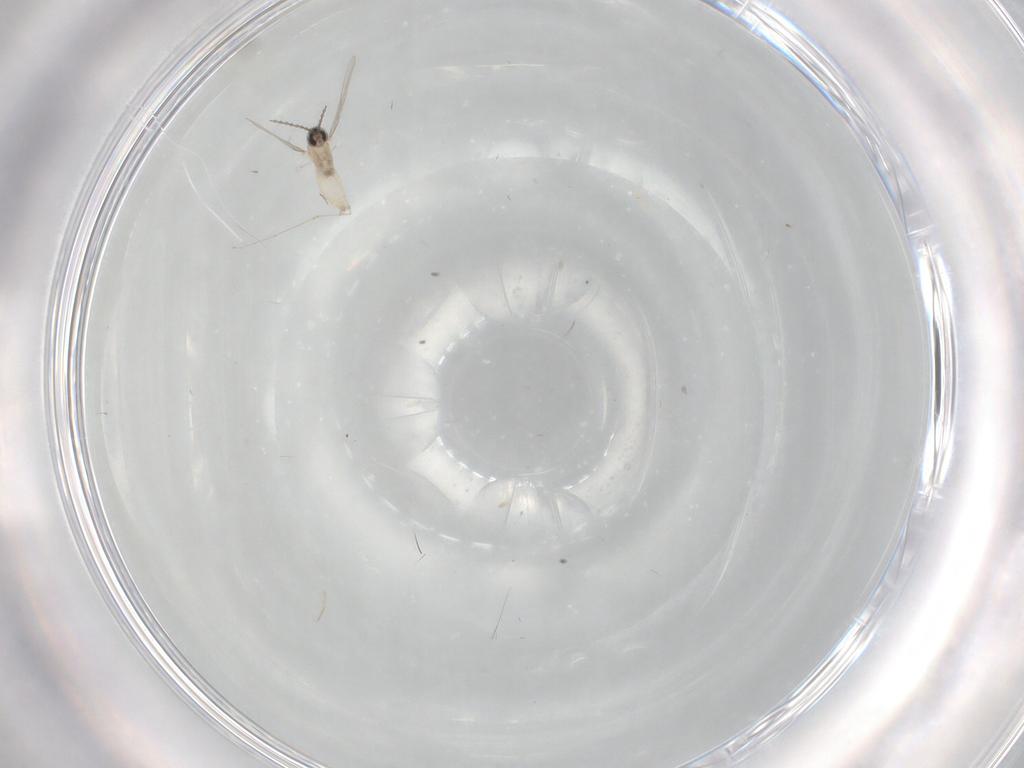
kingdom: Animalia
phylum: Arthropoda
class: Insecta
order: Diptera
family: Cecidomyiidae
